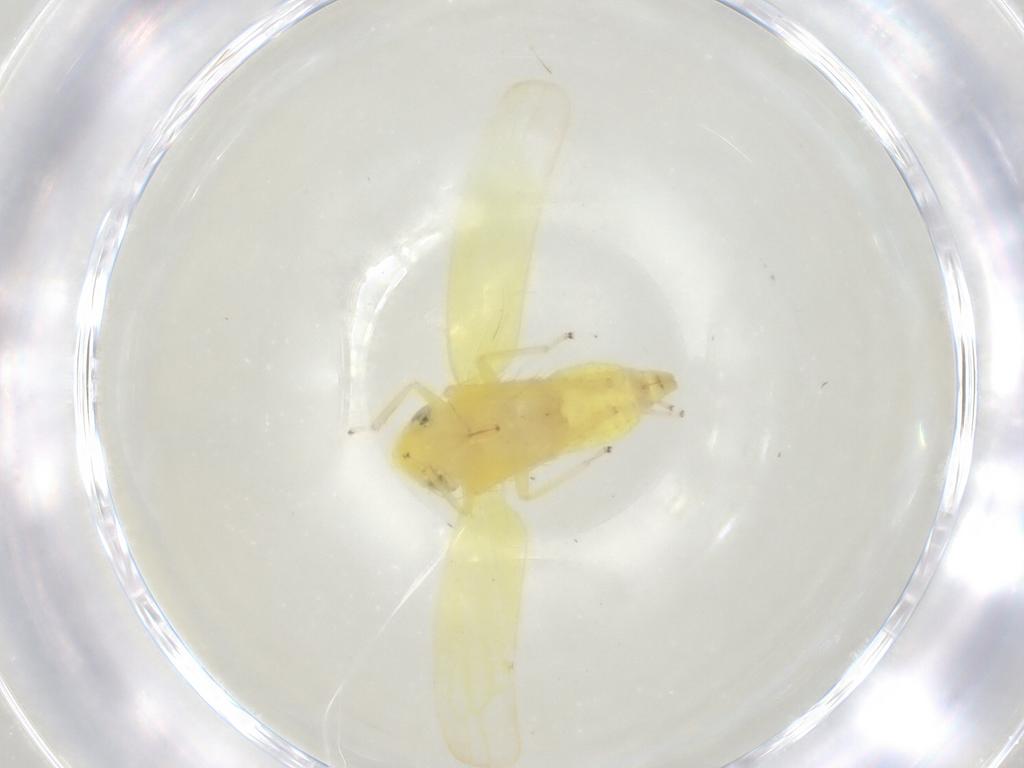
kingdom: Animalia
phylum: Arthropoda
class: Insecta
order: Hemiptera
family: Cicadellidae
